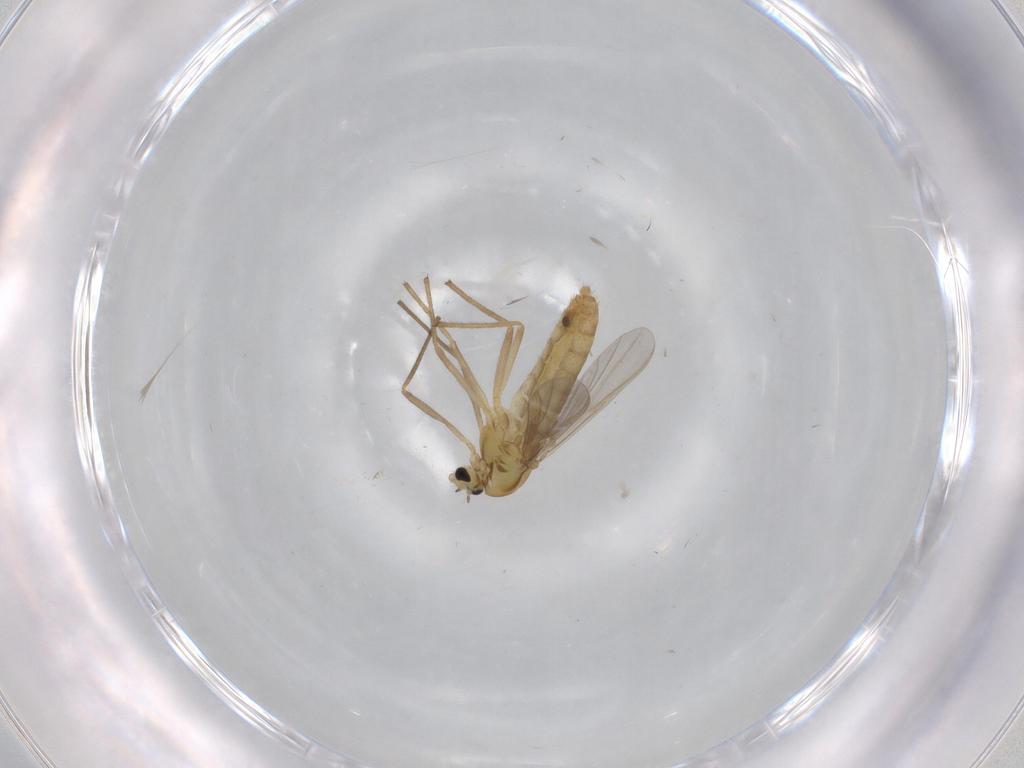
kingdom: Animalia
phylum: Arthropoda
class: Insecta
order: Diptera
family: Chironomidae
